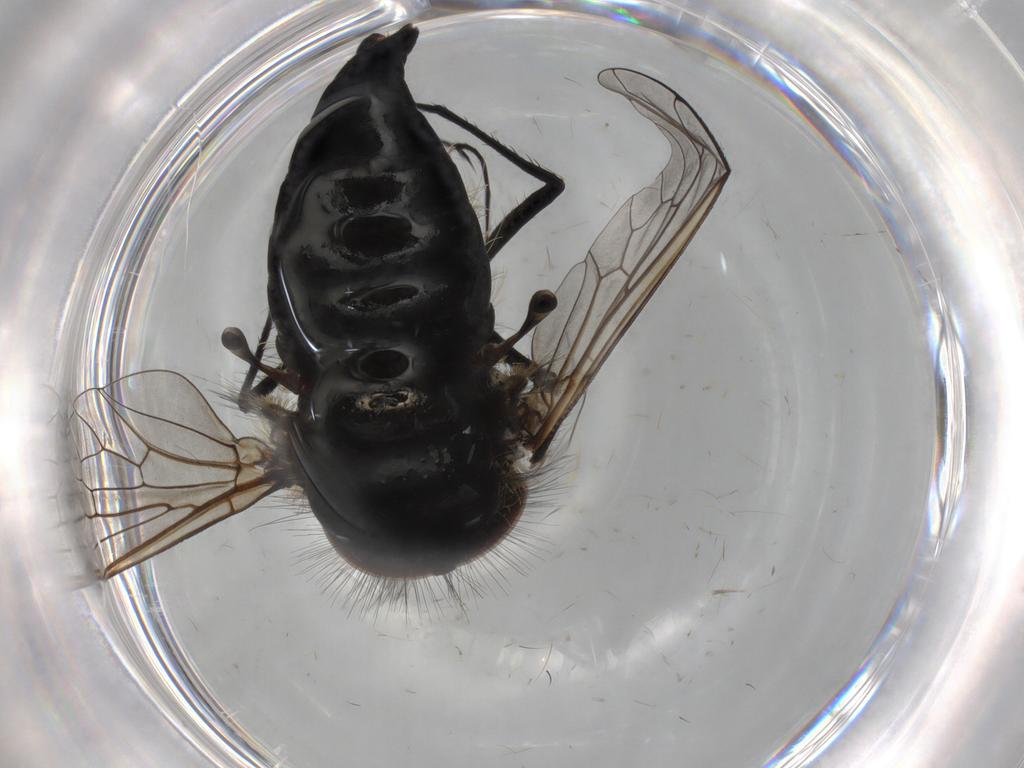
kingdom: Animalia
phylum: Arthropoda
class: Insecta
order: Diptera
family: Bombyliidae
